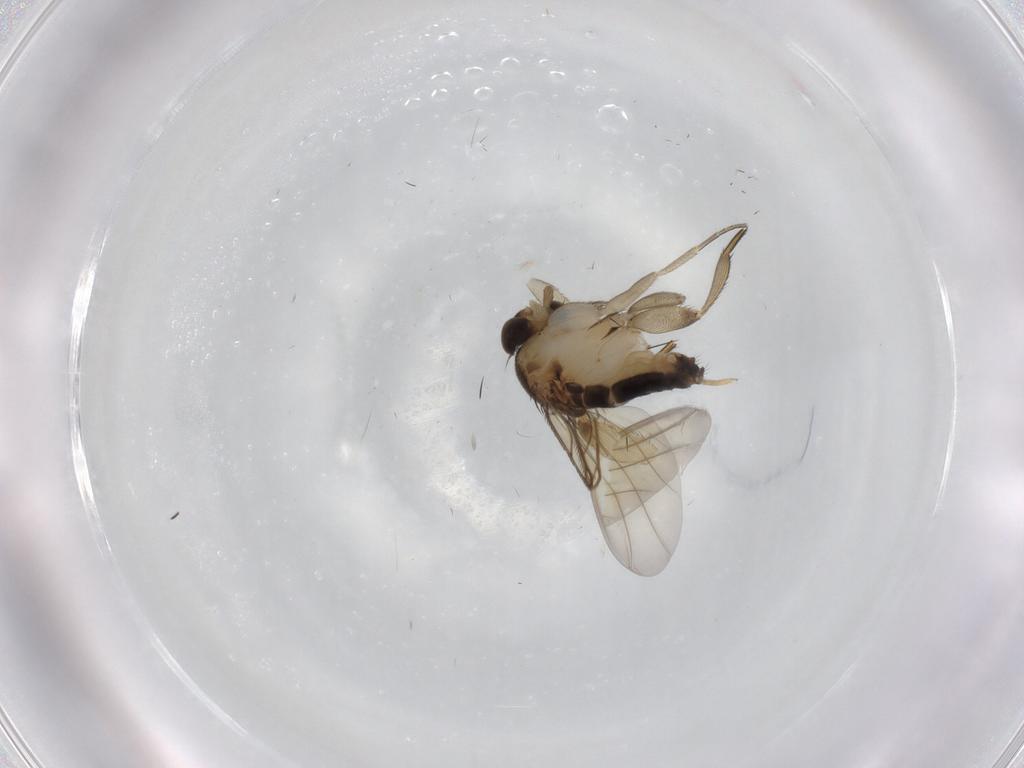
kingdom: Animalia
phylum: Arthropoda
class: Insecta
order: Diptera
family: Phoridae
